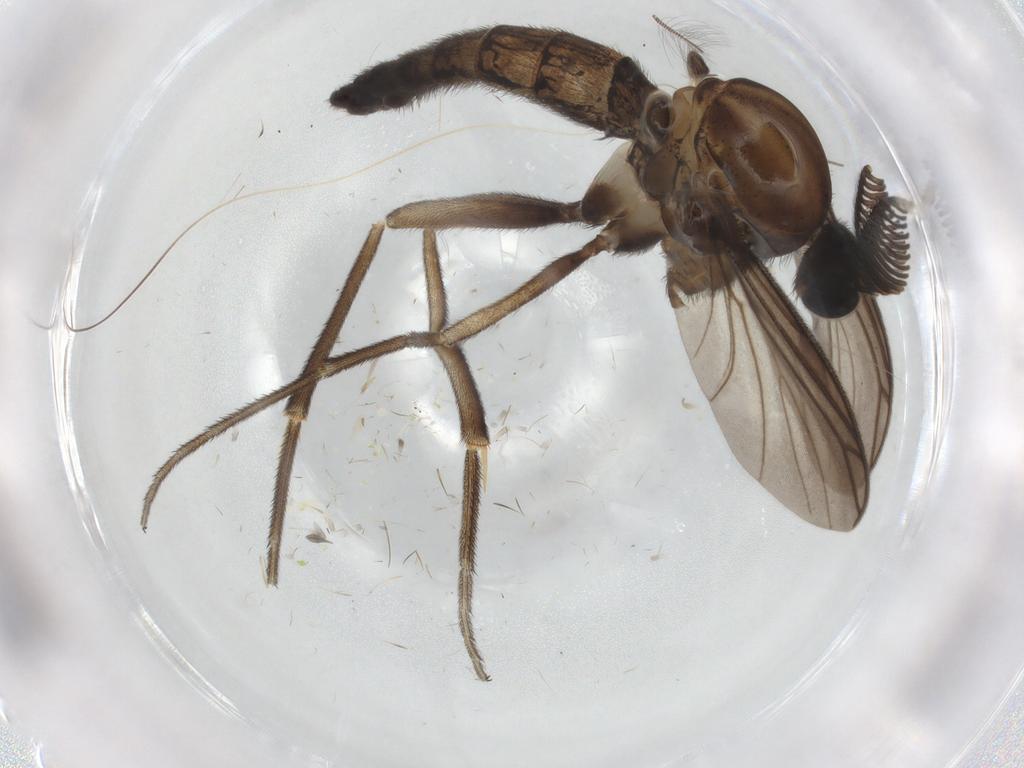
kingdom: Animalia
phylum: Arthropoda
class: Insecta
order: Diptera
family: Keroplatidae
